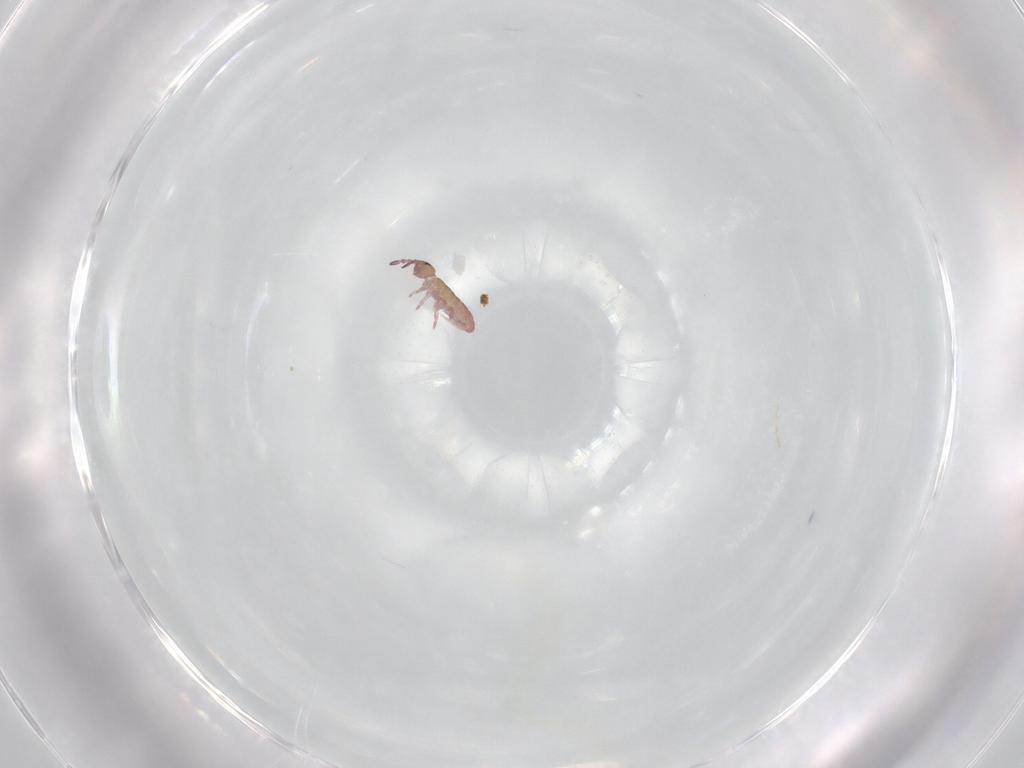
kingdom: Animalia
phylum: Arthropoda
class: Collembola
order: Entomobryomorpha
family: Isotomidae
